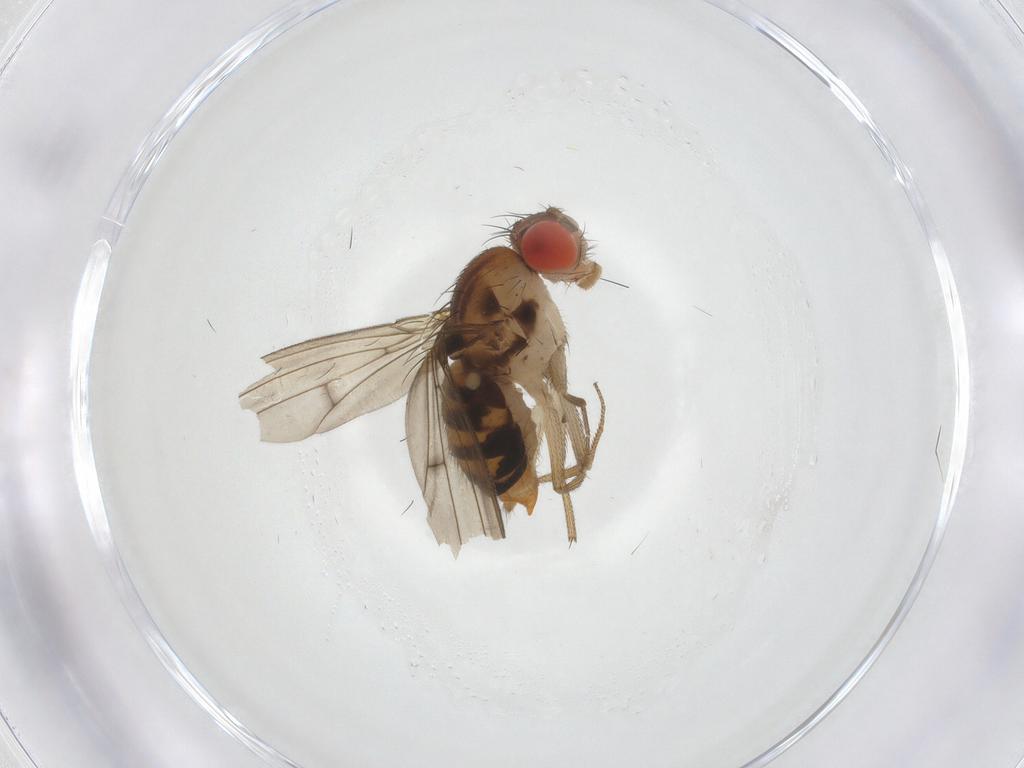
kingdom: Animalia
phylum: Arthropoda
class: Insecta
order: Diptera
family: Drosophilidae
